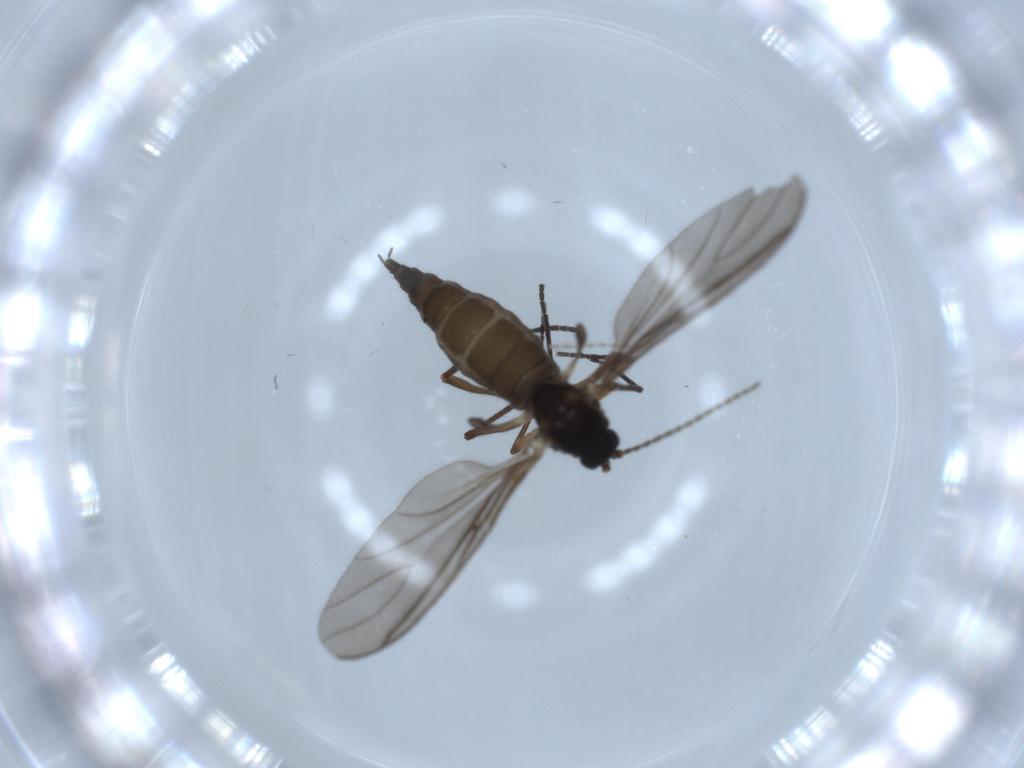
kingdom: Animalia
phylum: Arthropoda
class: Insecta
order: Diptera
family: Sciaridae
